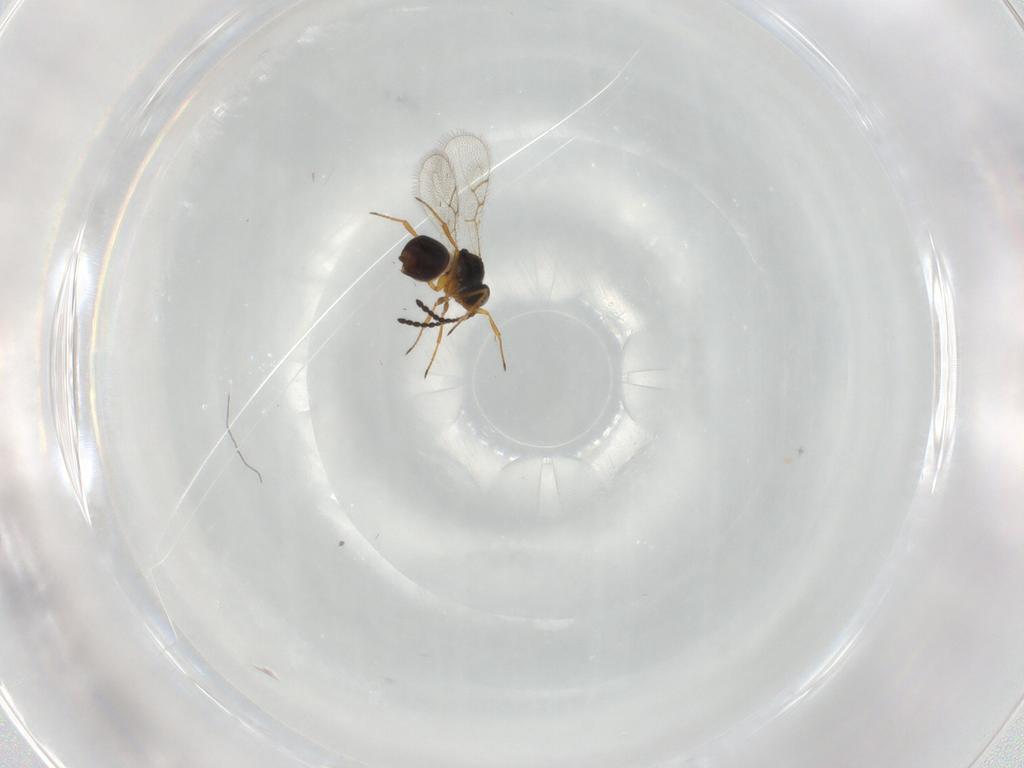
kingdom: Animalia
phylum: Arthropoda
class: Insecta
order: Hymenoptera
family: Figitidae
